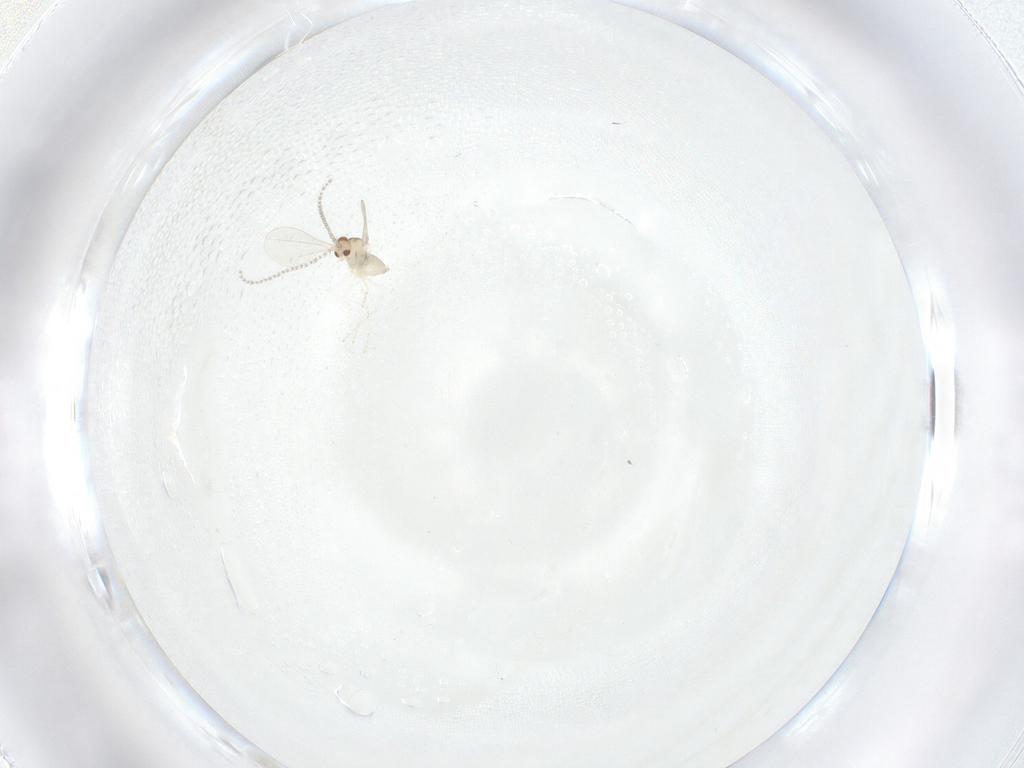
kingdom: Animalia
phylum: Arthropoda
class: Insecta
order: Diptera
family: Cecidomyiidae
